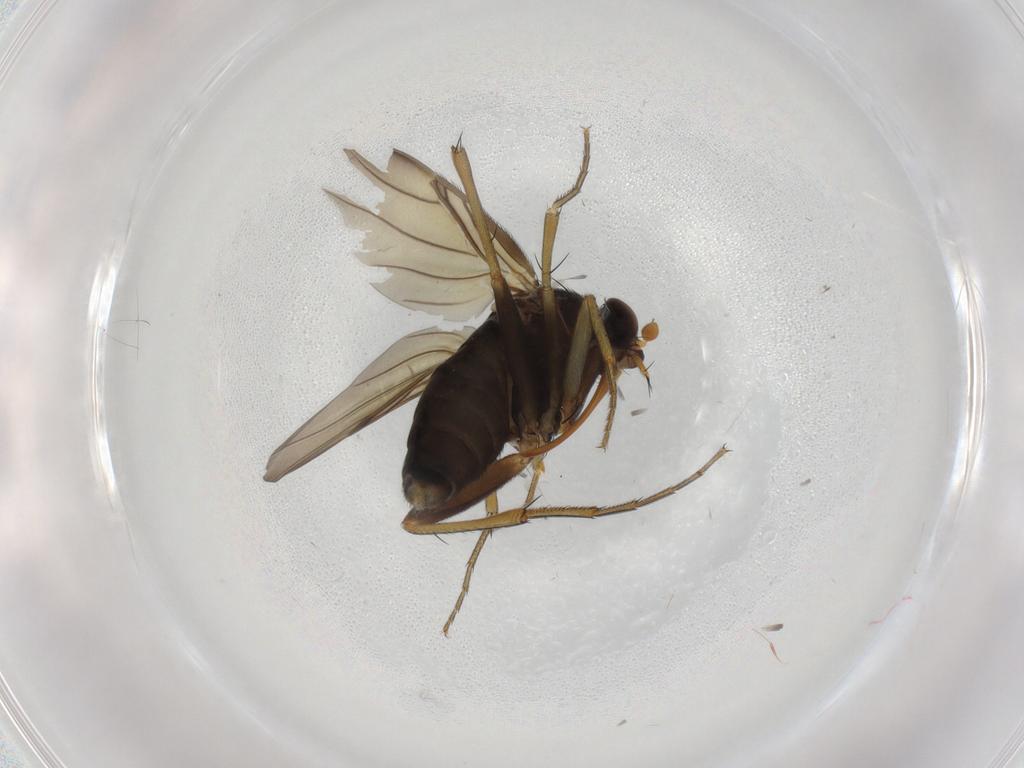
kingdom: Animalia
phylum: Arthropoda
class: Insecta
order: Diptera
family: Phoridae
